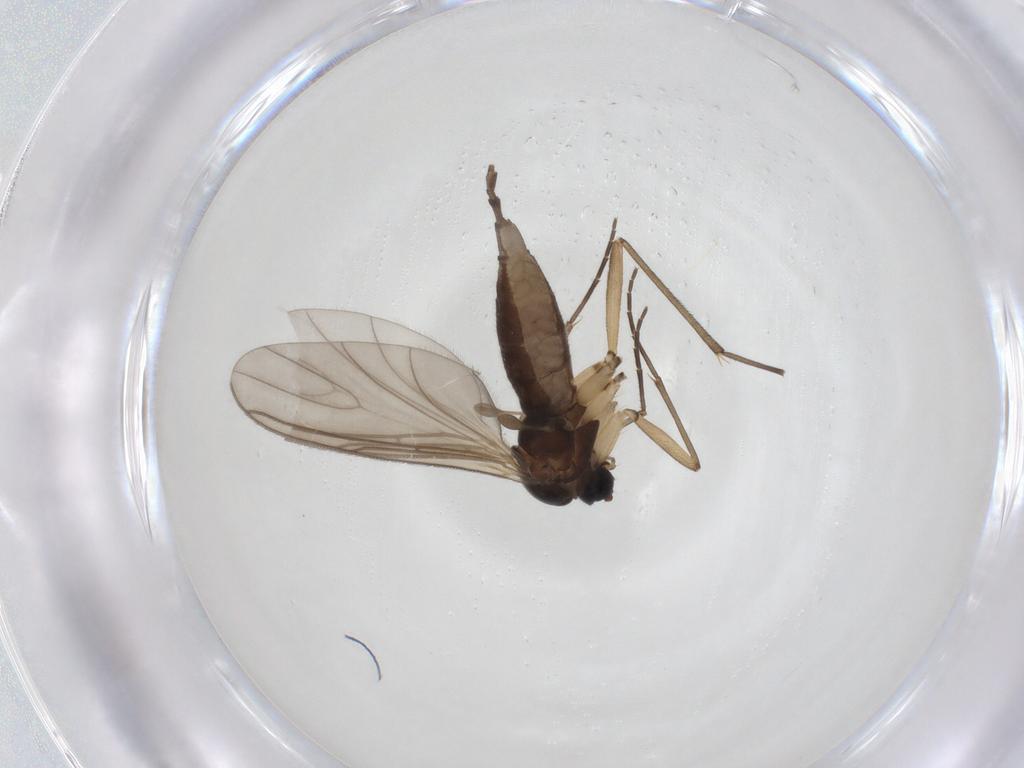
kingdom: Animalia
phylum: Arthropoda
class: Insecta
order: Diptera
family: Sciaridae
